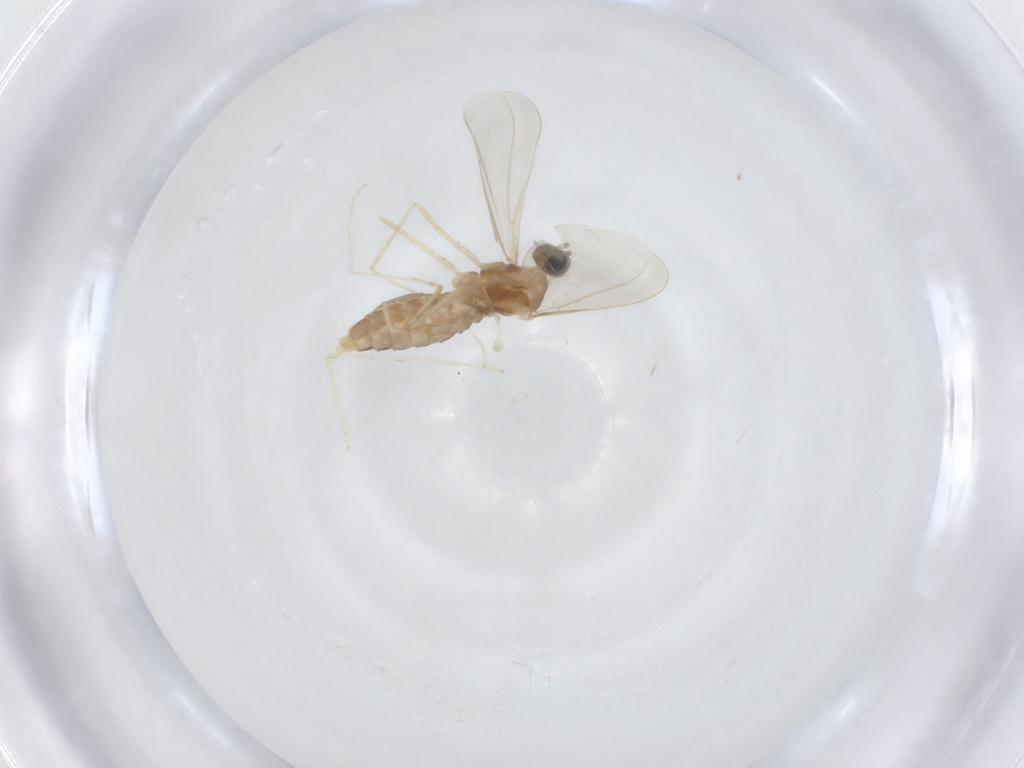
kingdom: Animalia
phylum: Arthropoda
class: Insecta
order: Diptera
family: Cecidomyiidae
